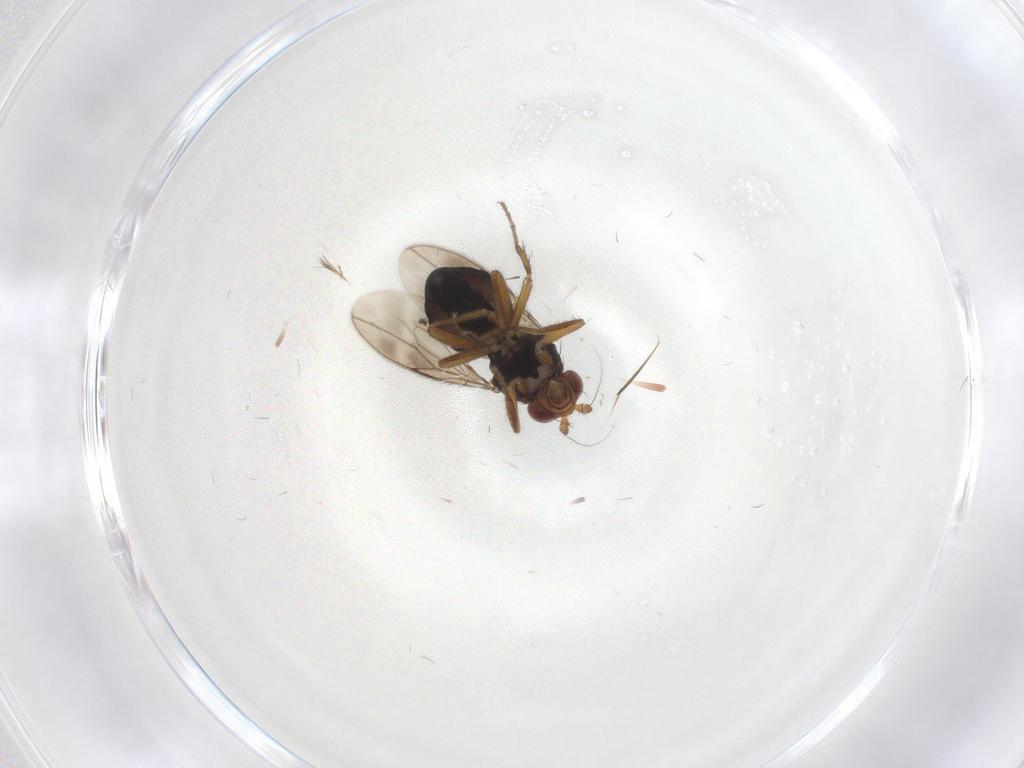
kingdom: Animalia
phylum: Arthropoda
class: Insecta
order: Diptera
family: Sphaeroceridae
